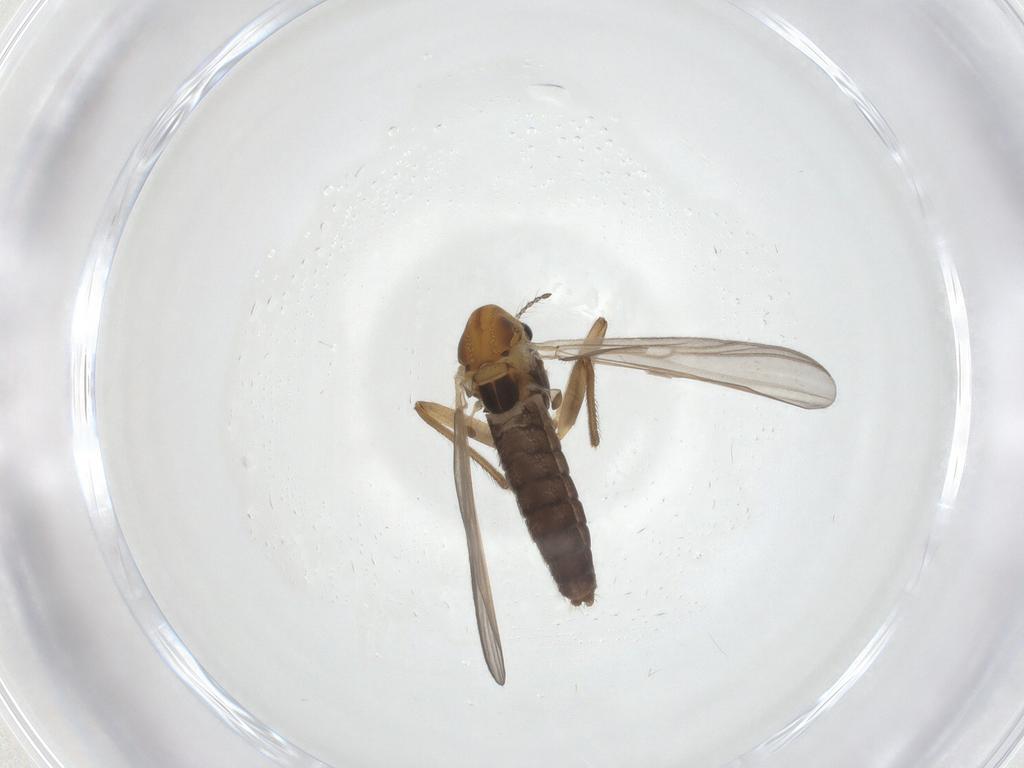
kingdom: Animalia
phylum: Arthropoda
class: Insecta
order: Diptera
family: Chironomidae
